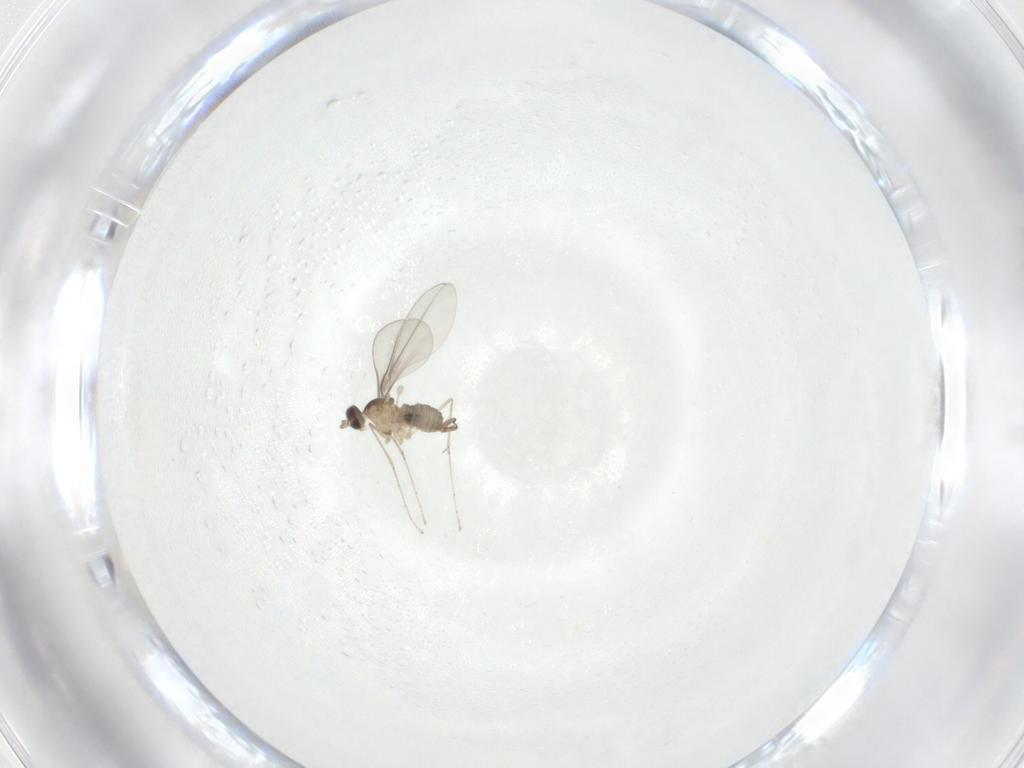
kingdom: Animalia
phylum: Arthropoda
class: Insecta
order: Diptera
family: Cecidomyiidae
